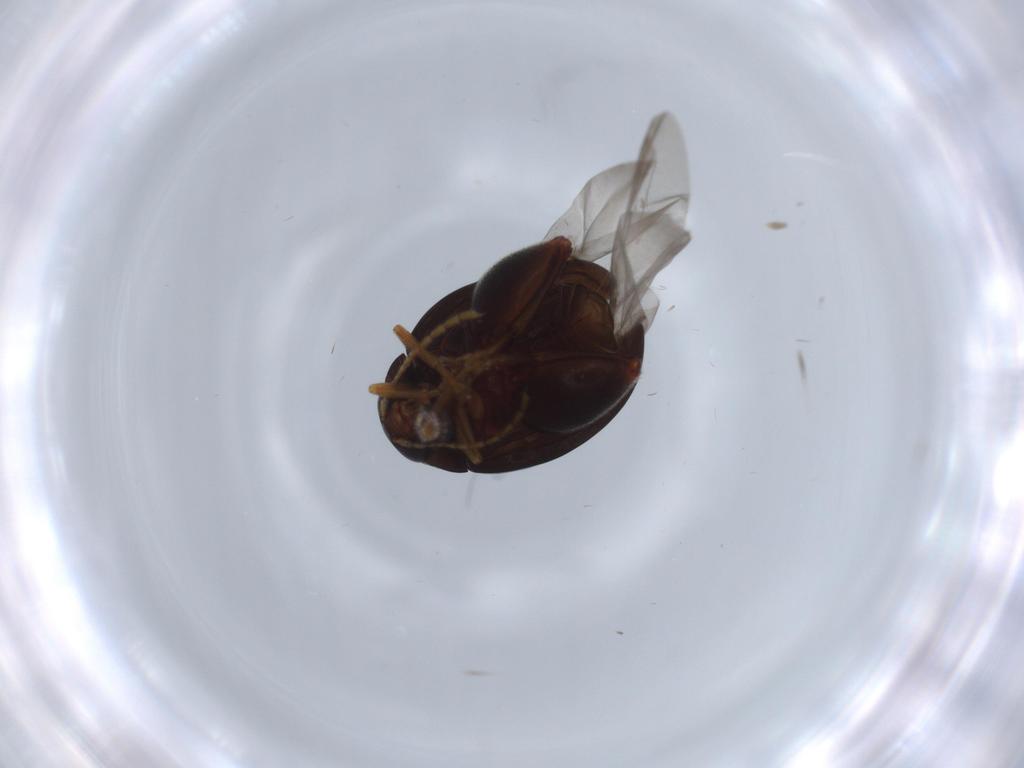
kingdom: Animalia
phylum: Arthropoda
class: Insecta
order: Coleoptera
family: Chrysomelidae
